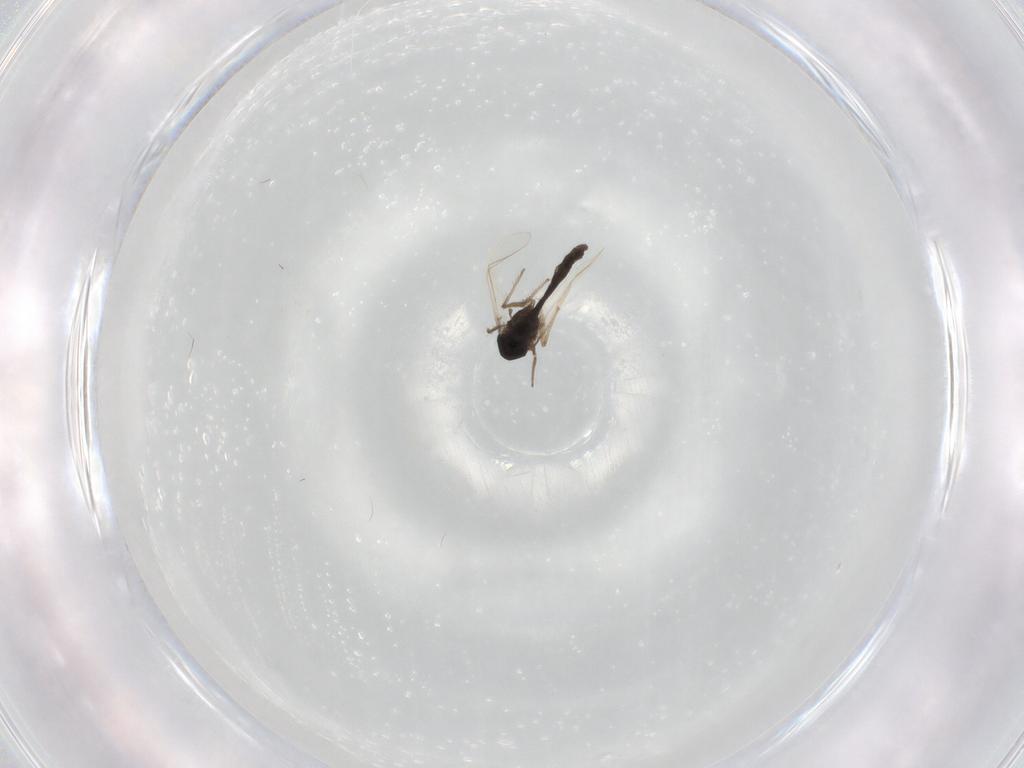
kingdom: Animalia
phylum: Arthropoda
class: Insecta
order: Diptera
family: Chironomidae
